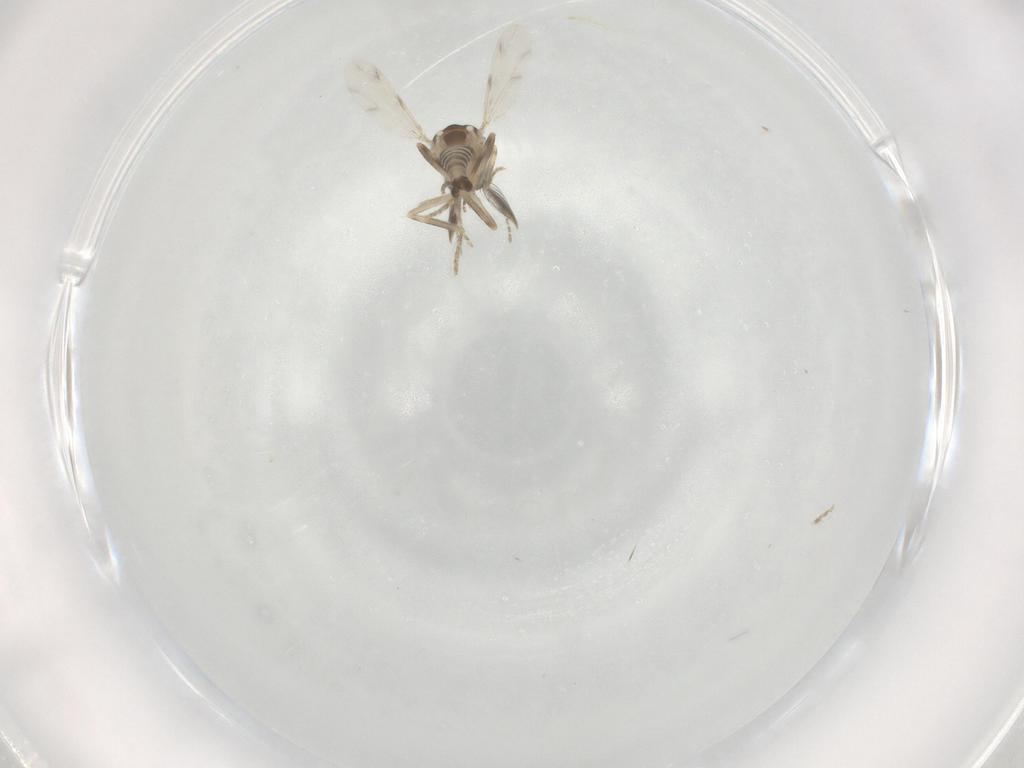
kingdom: Animalia
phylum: Arthropoda
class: Insecta
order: Diptera
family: Ceratopogonidae
